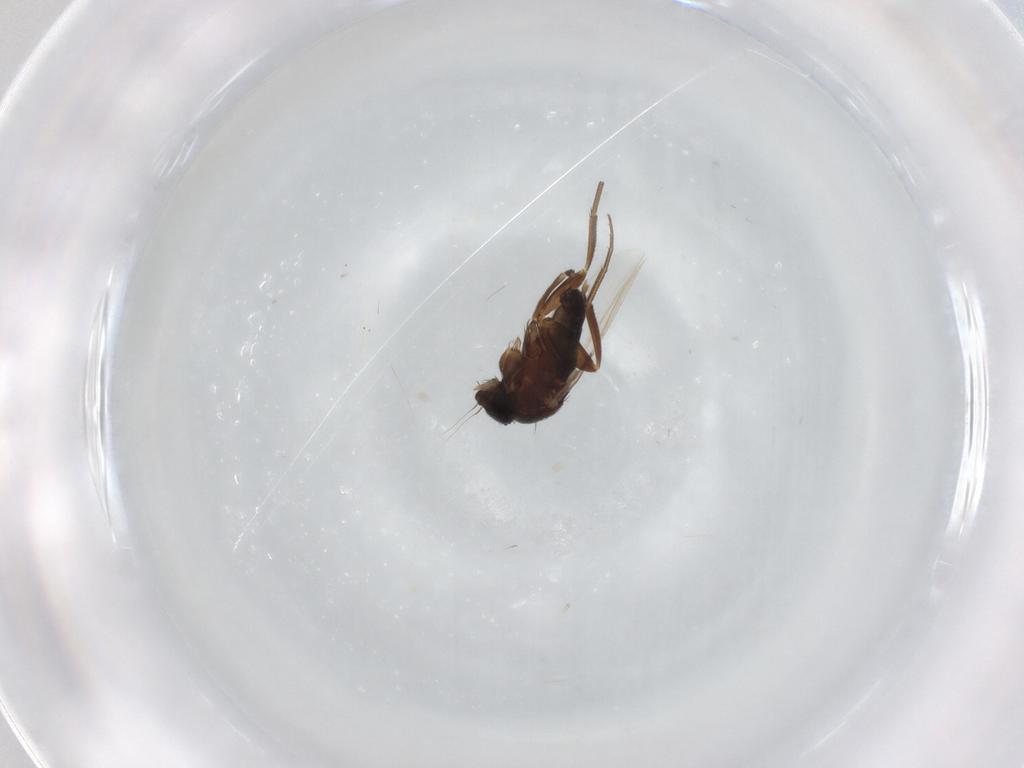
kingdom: Animalia
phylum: Arthropoda
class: Insecta
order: Diptera
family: Phoridae
